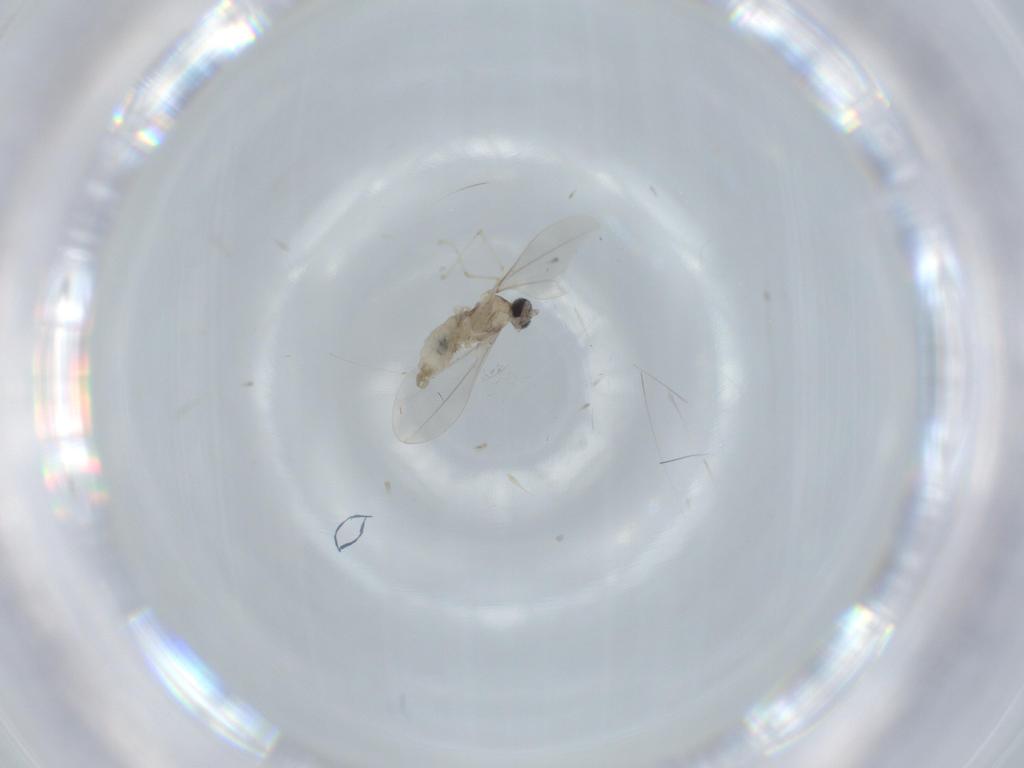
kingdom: Animalia
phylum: Arthropoda
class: Insecta
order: Diptera
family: Cecidomyiidae
